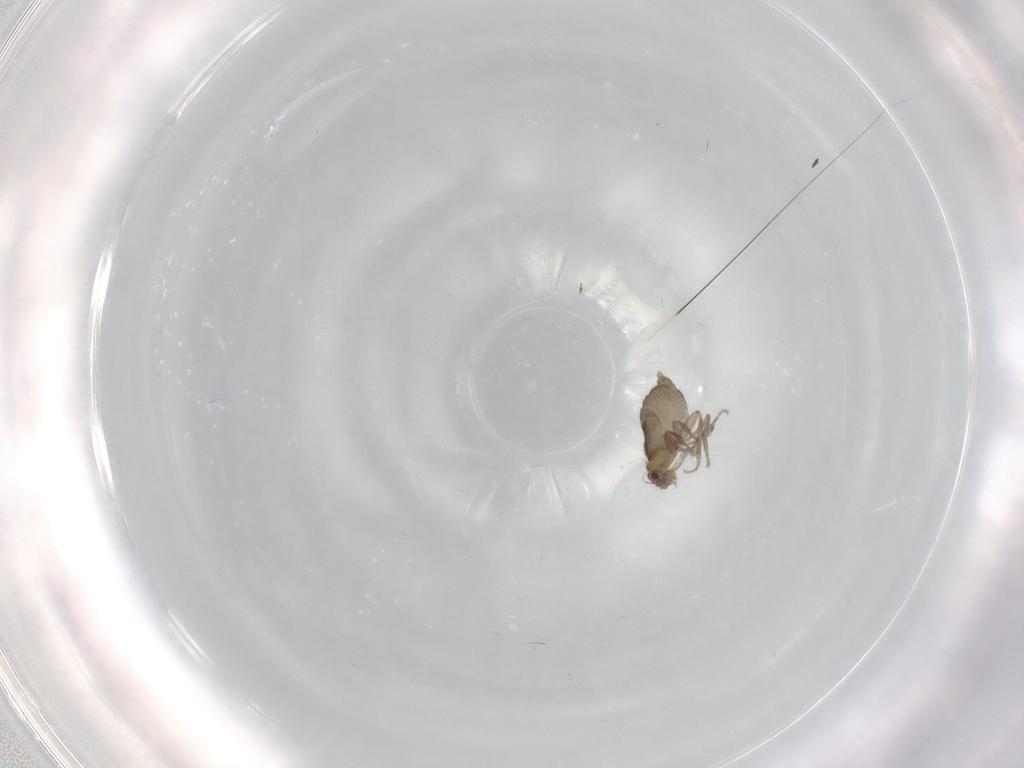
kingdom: Animalia
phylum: Arthropoda
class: Insecta
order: Diptera
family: Phoridae
